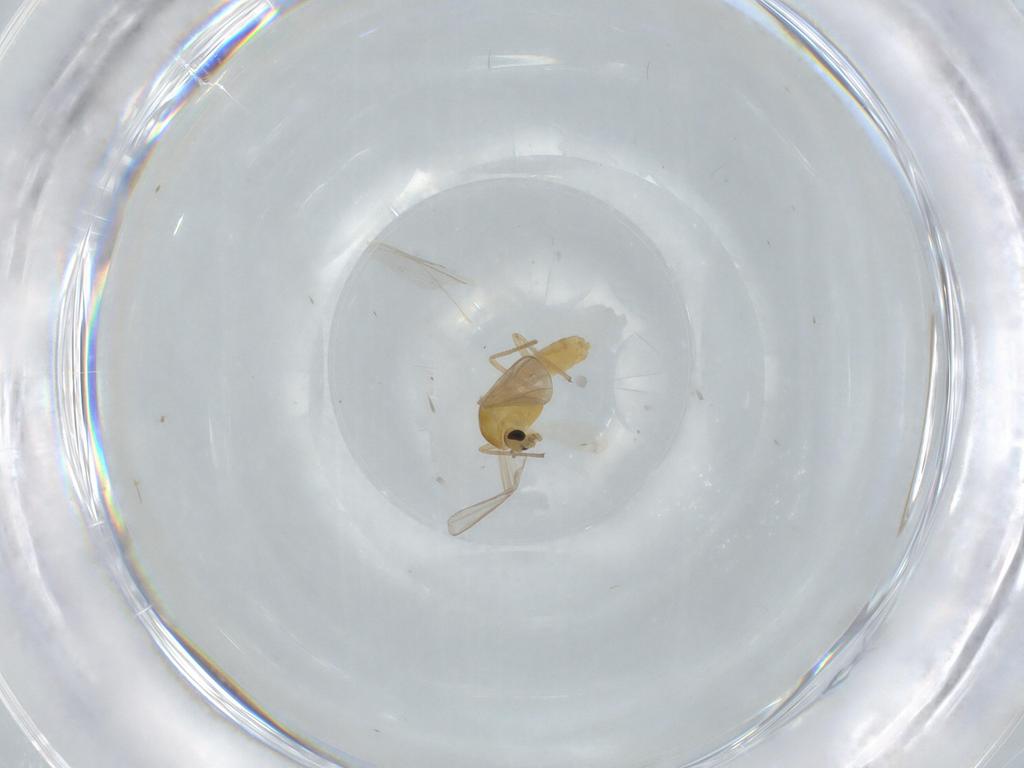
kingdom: Animalia
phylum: Arthropoda
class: Insecta
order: Diptera
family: Chironomidae
